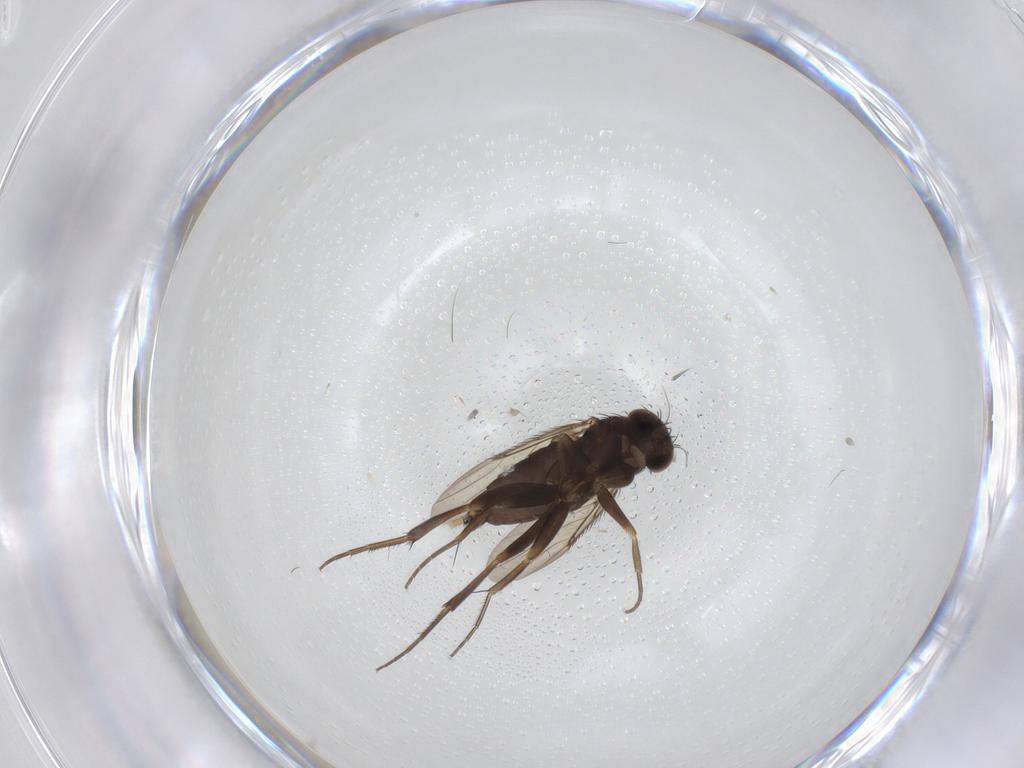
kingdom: Animalia
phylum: Arthropoda
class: Insecta
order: Diptera
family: Phoridae
